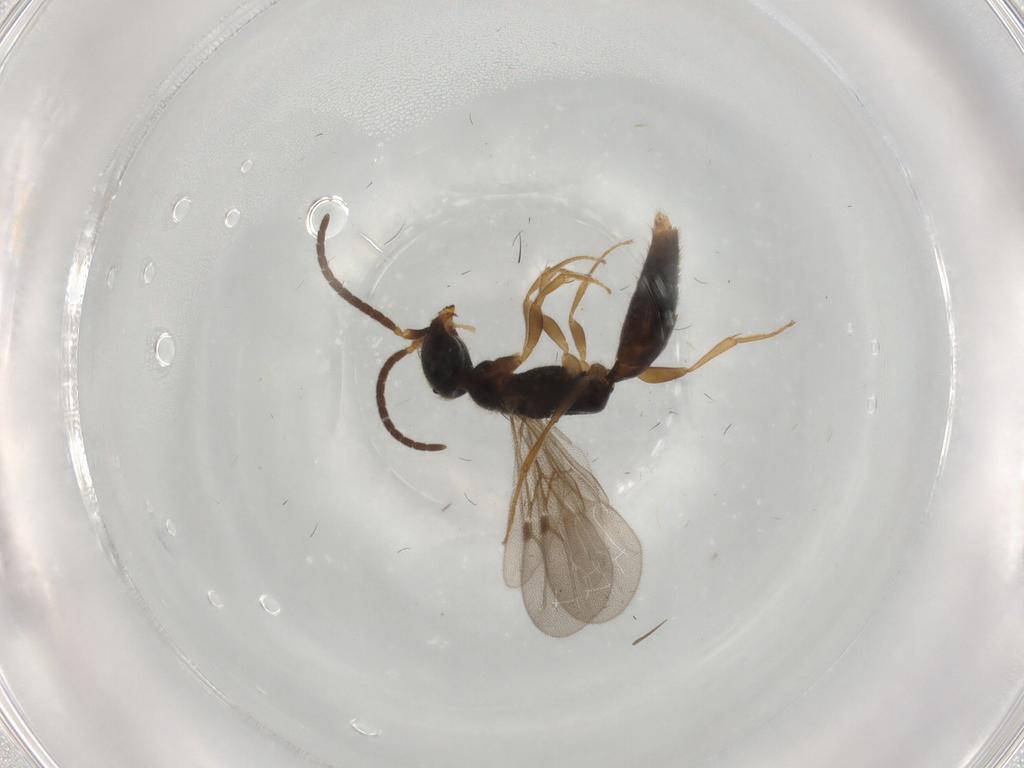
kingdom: Animalia
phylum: Arthropoda
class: Insecta
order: Hymenoptera
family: Bethylidae
